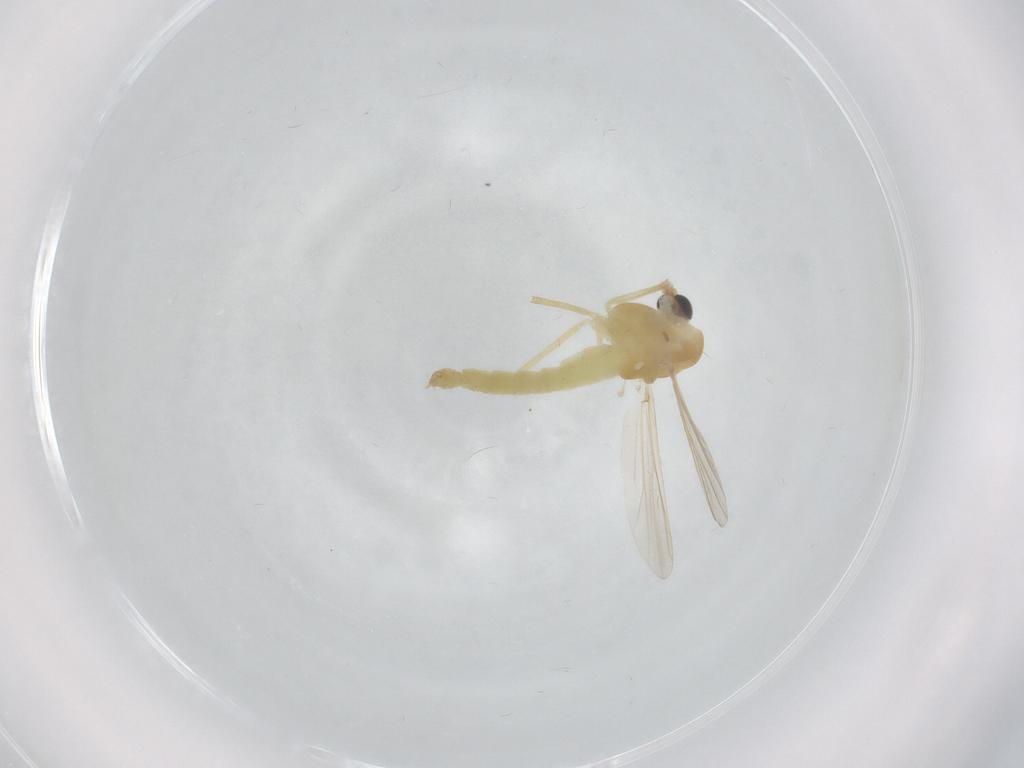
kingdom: Animalia
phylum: Arthropoda
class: Insecta
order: Diptera
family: Chironomidae
